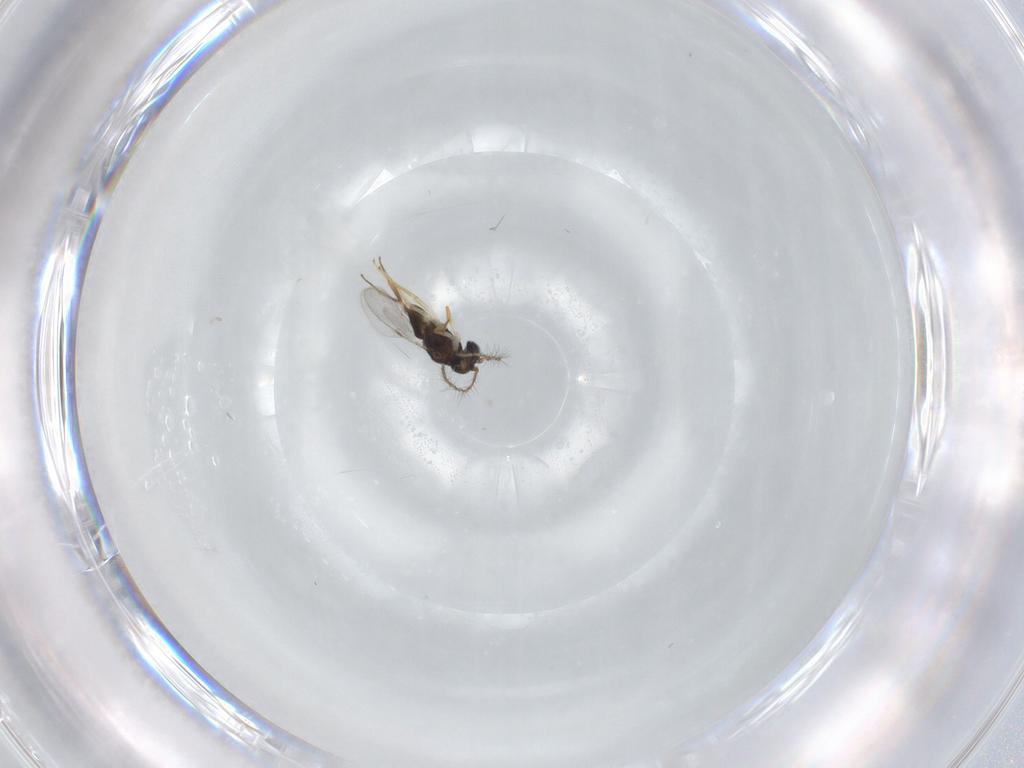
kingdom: Animalia
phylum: Arthropoda
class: Insecta
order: Hymenoptera
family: Encyrtidae
